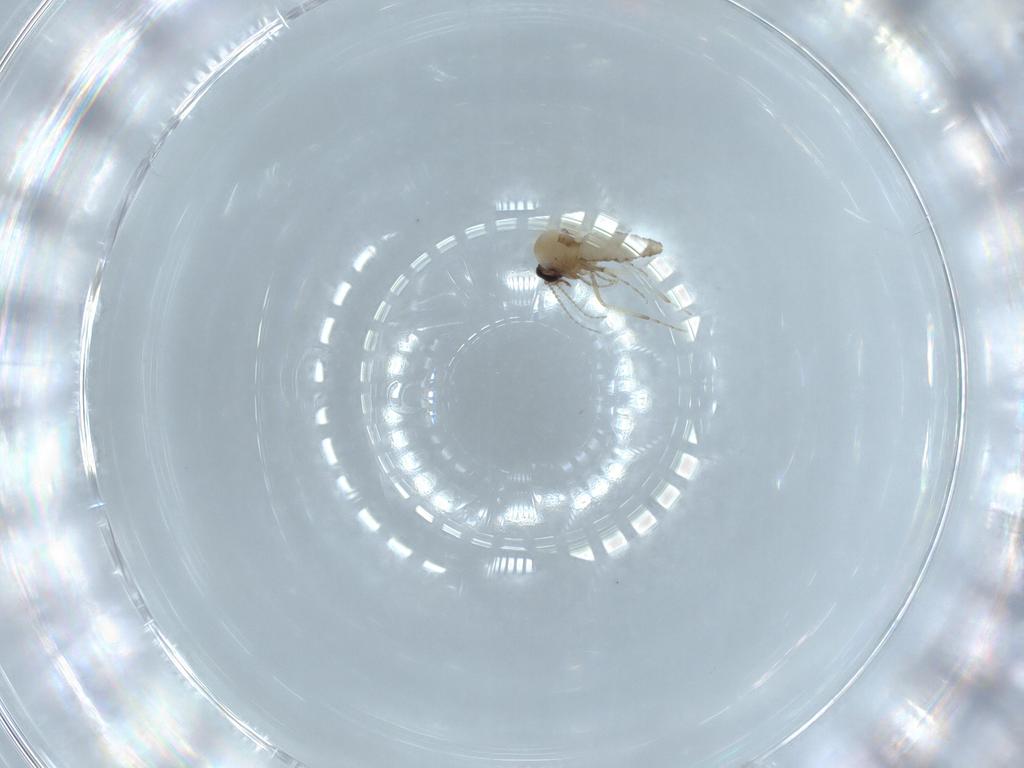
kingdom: Animalia
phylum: Arthropoda
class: Insecta
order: Diptera
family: Ceratopogonidae
